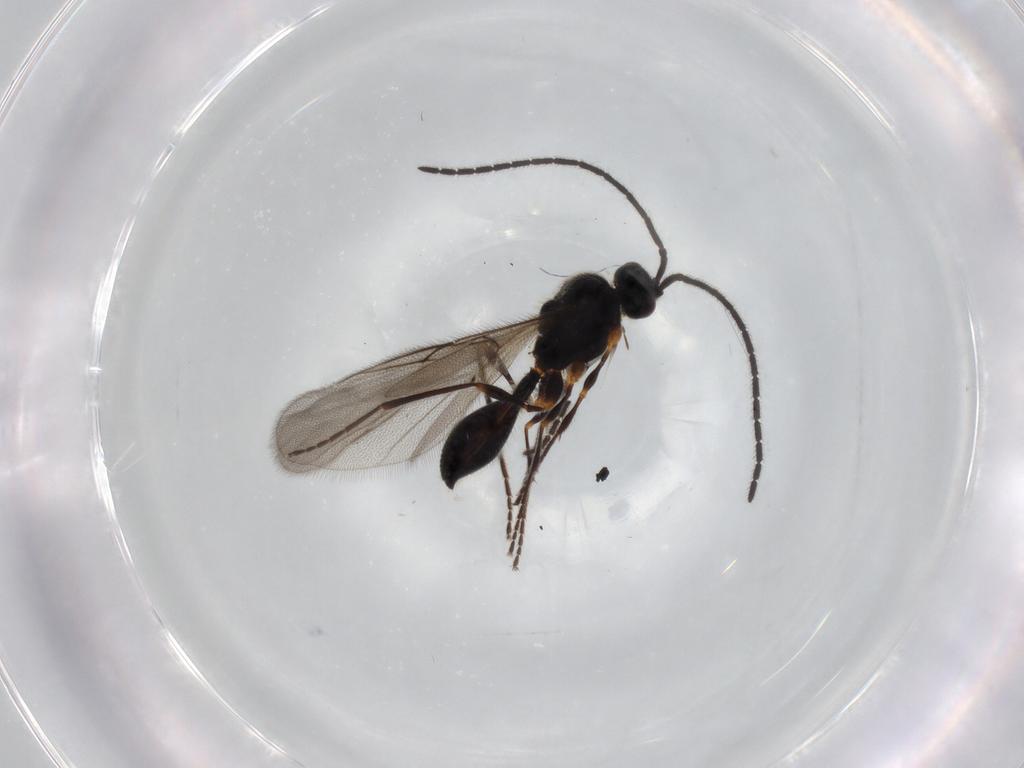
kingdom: Animalia
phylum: Arthropoda
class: Insecta
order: Hymenoptera
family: Diapriidae
